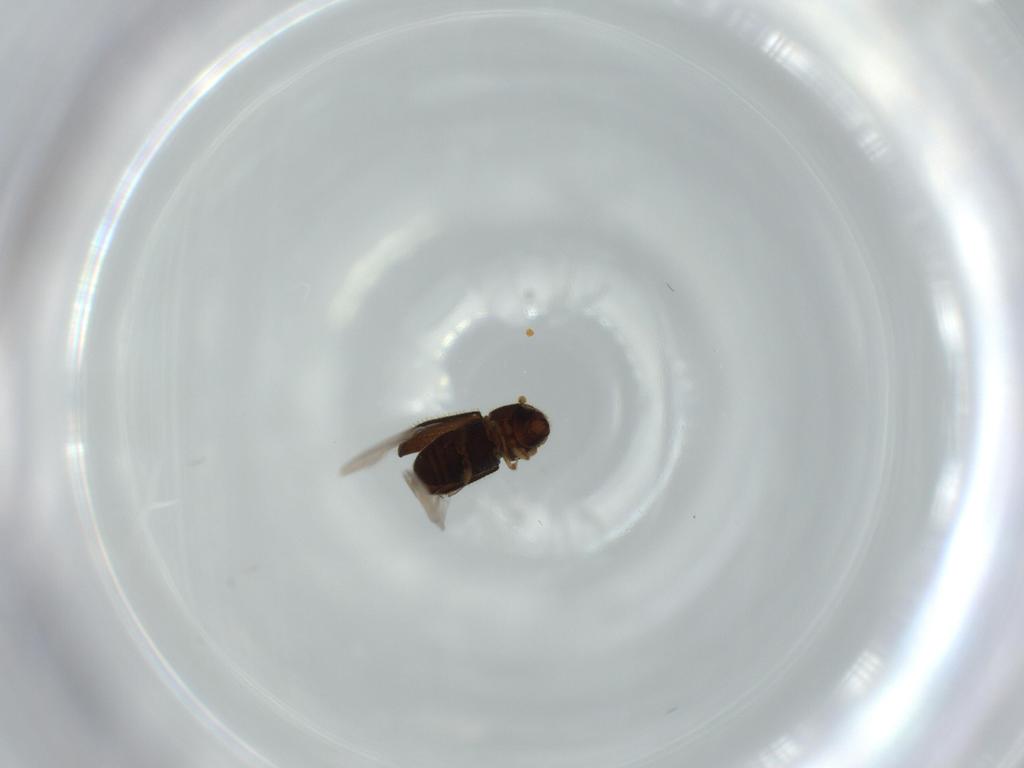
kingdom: Animalia
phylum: Arthropoda
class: Insecta
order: Coleoptera
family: Curculionidae
